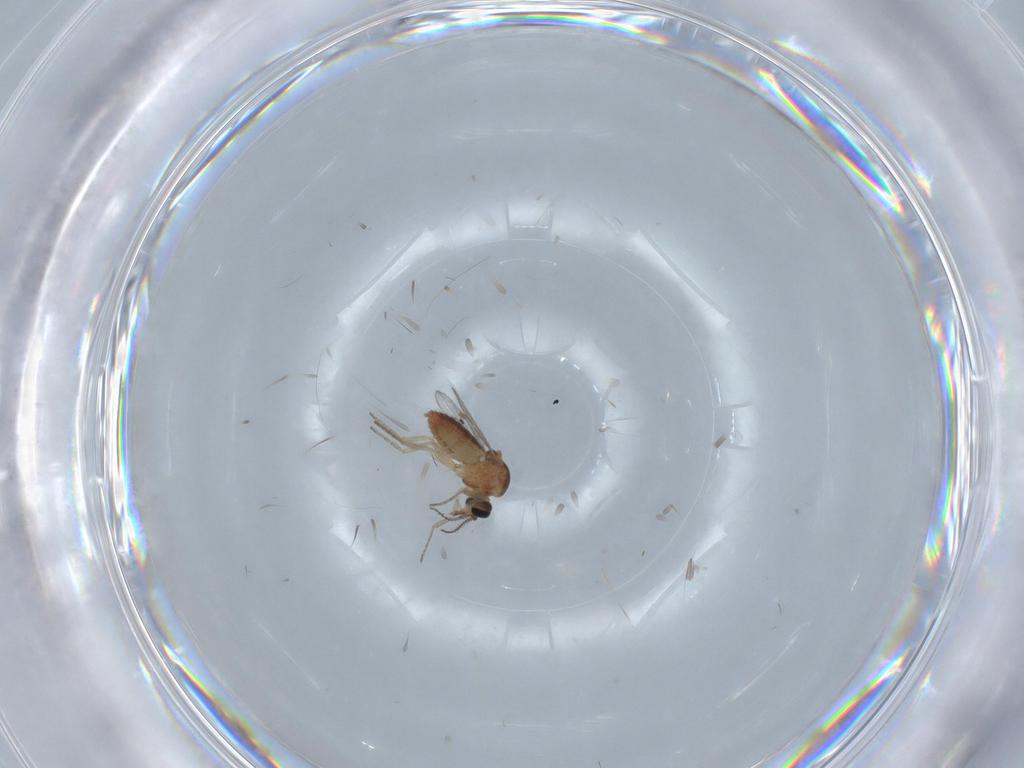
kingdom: Animalia
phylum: Arthropoda
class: Insecta
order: Diptera
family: Ceratopogonidae
